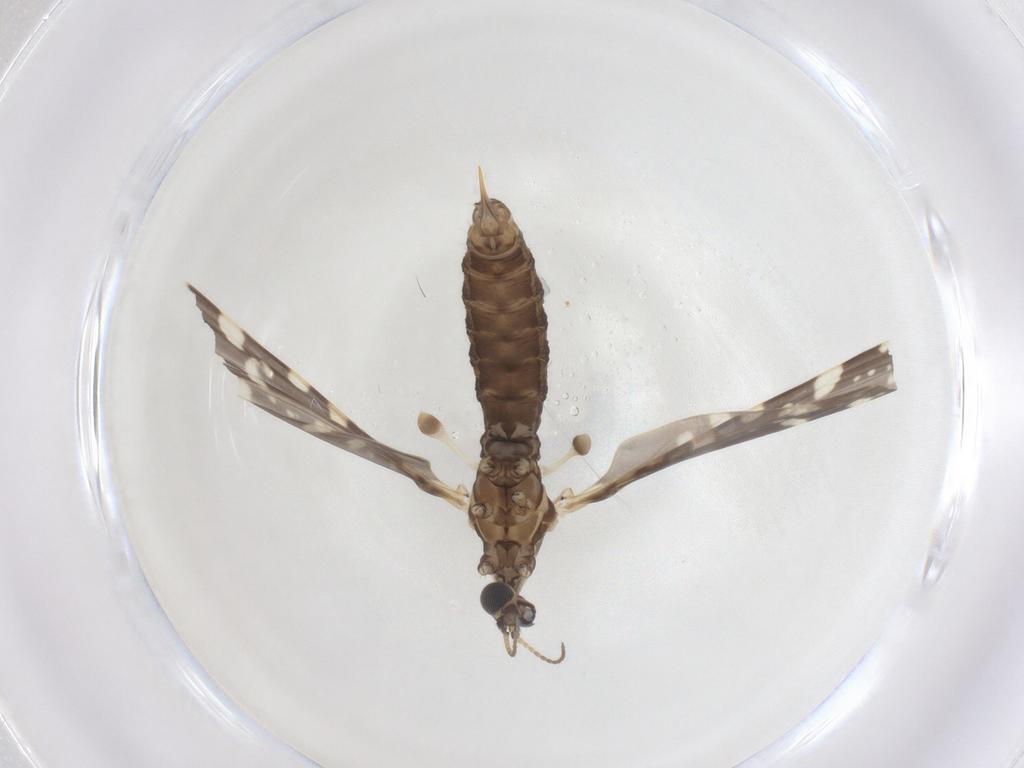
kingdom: Animalia
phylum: Arthropoda
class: Insecta
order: Diptera
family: Limoniidae
